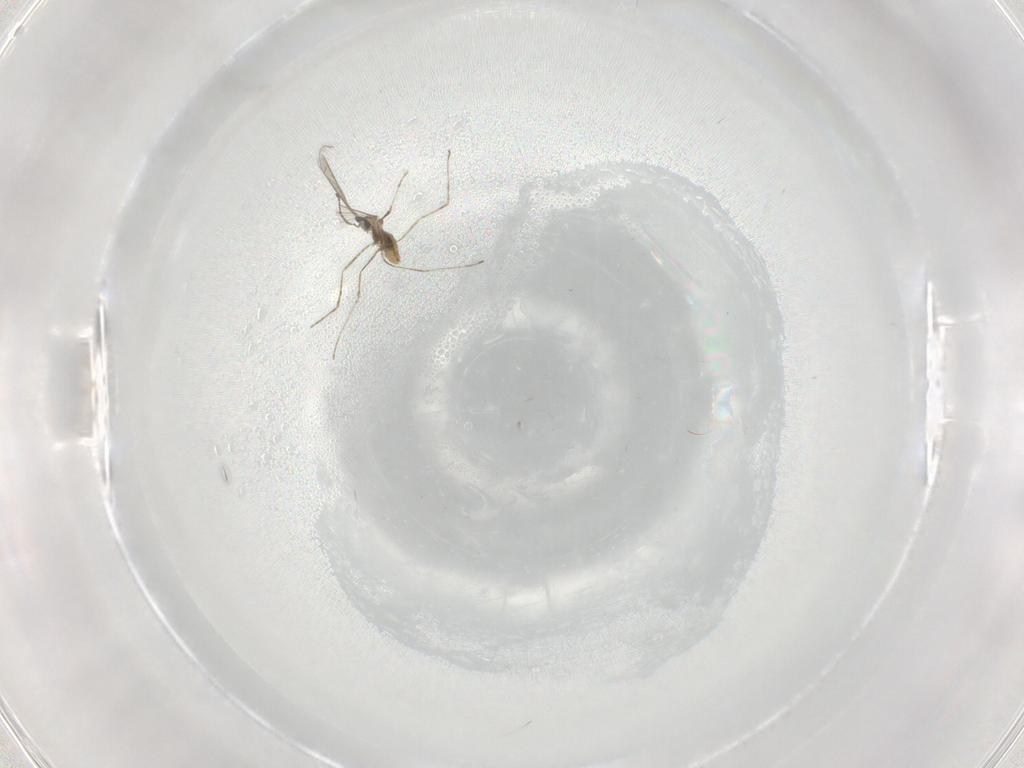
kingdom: Animalia
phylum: Arthropoda
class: Insecta
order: Diptera
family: Cecidomyiidae
